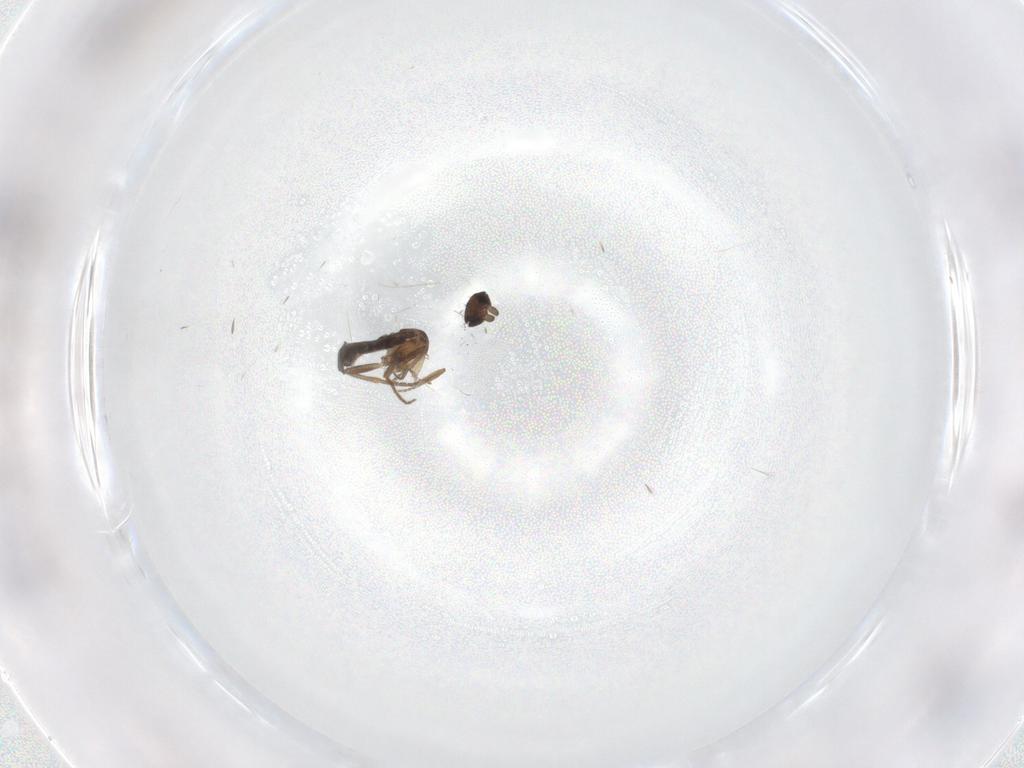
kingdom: Animalia
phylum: Arthropoda
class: Insecta
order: Diptera
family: Cecidomyiidae
